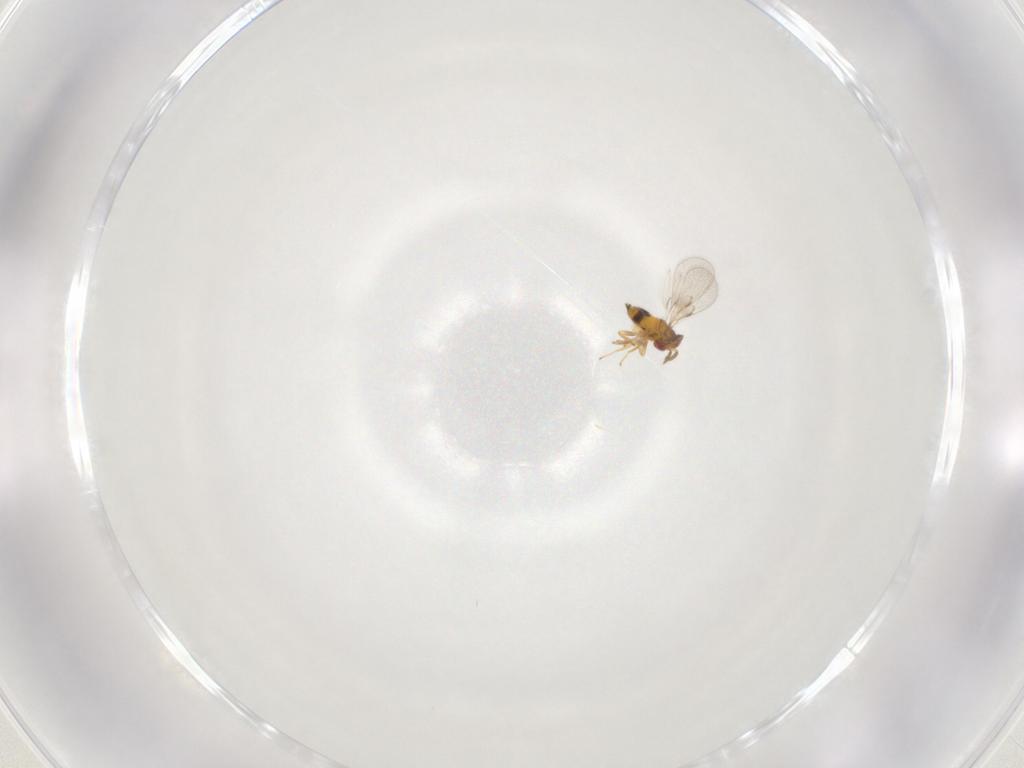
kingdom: Animalia
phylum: Arthropoda
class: Insecta
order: Hymenoptera
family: Trichogrammatidae
